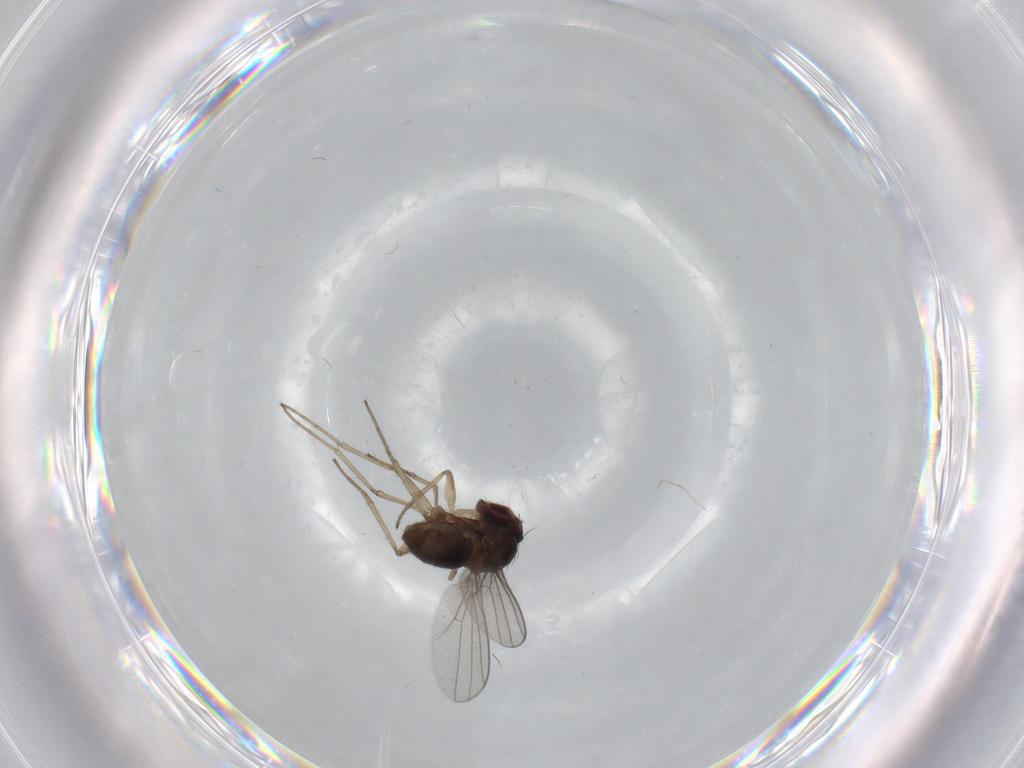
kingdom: Animalia
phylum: Arthropoda
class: Insecta
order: Diptera
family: Dolichopodidae
